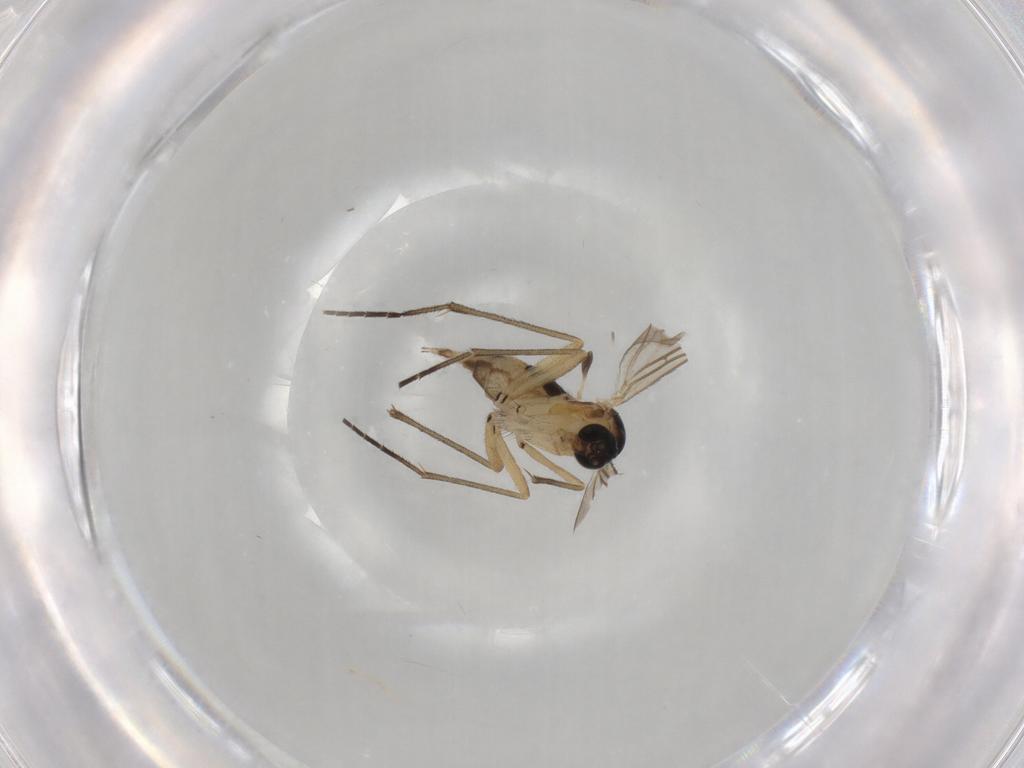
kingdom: Animalia
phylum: Arthropoda
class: Insecta
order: Diptera
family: Sciaridae
